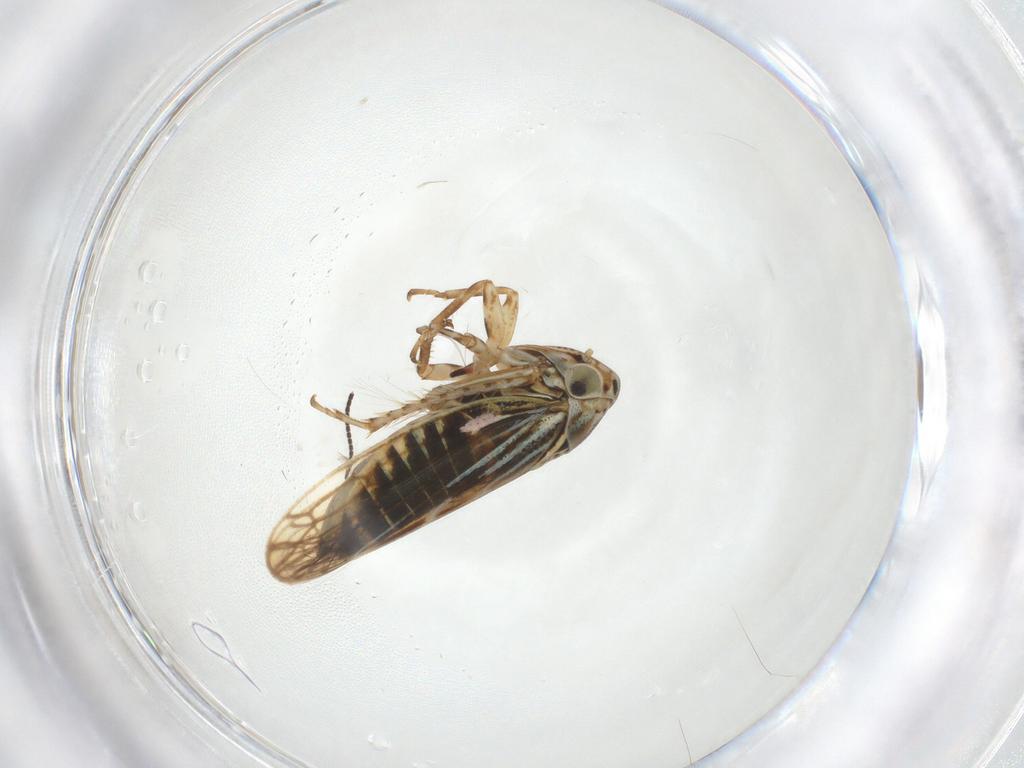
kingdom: Animalia
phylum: Arthropoda
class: Insecta
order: Hemiptera
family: Cicadellidae
